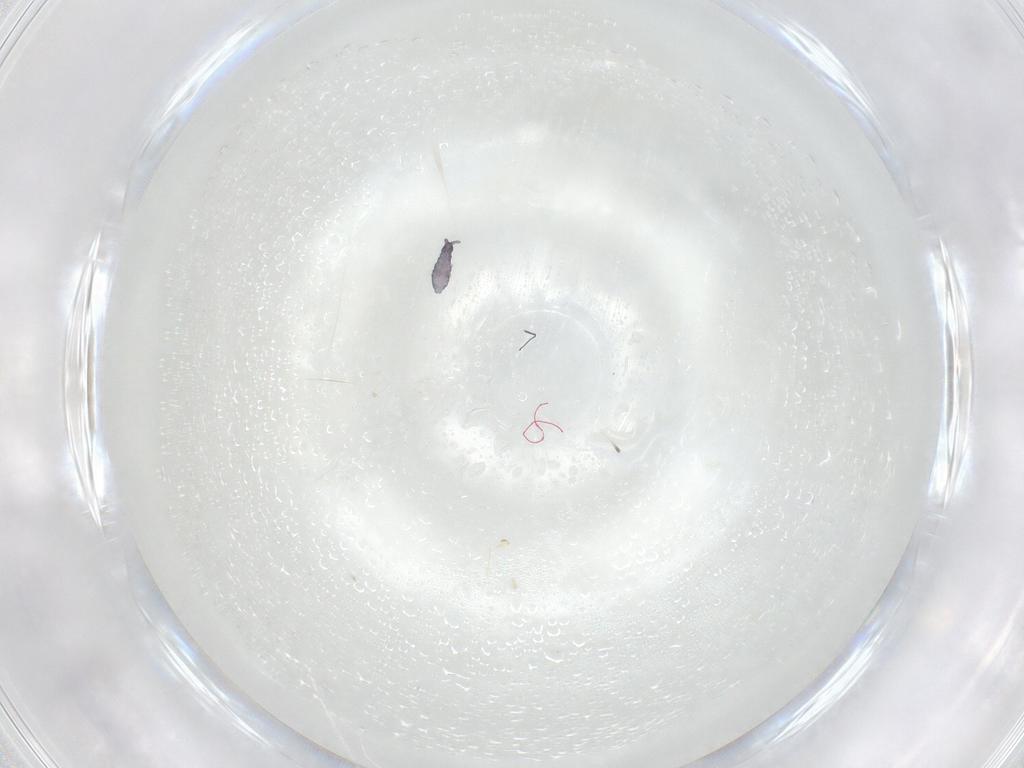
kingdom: Animalia
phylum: Arthropoda
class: Insecta
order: Diptera
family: Cecidomyiidae
